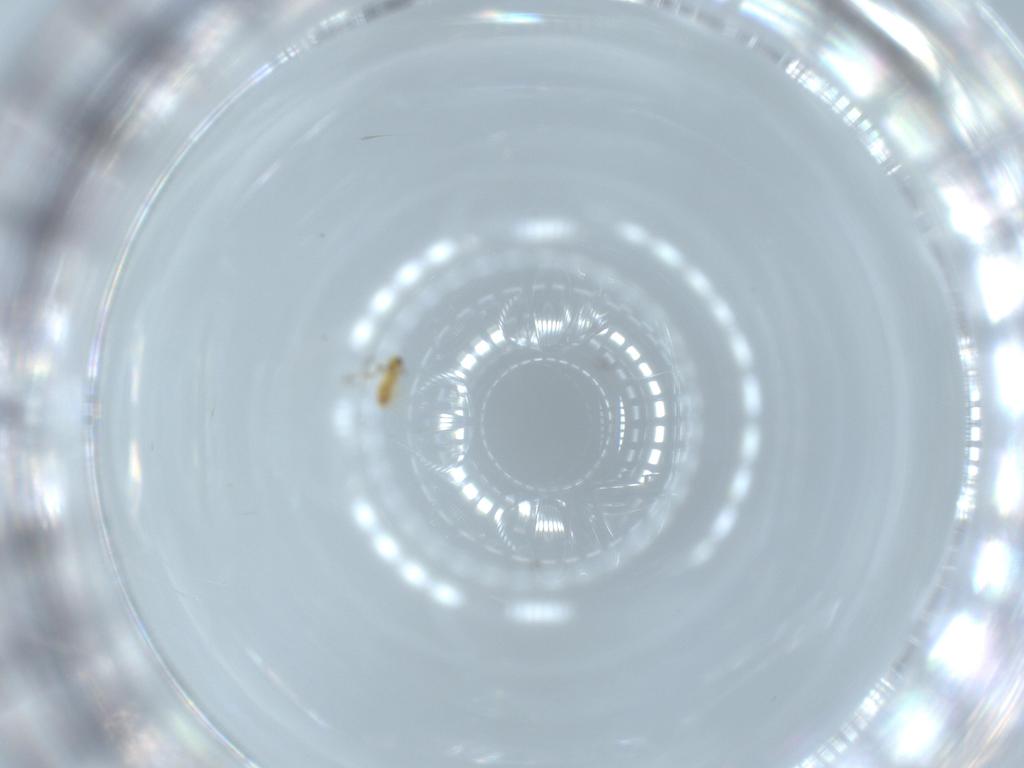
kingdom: Animalia
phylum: Arthropoda
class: Insecta
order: Hymenoptera
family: Signiphoridae
